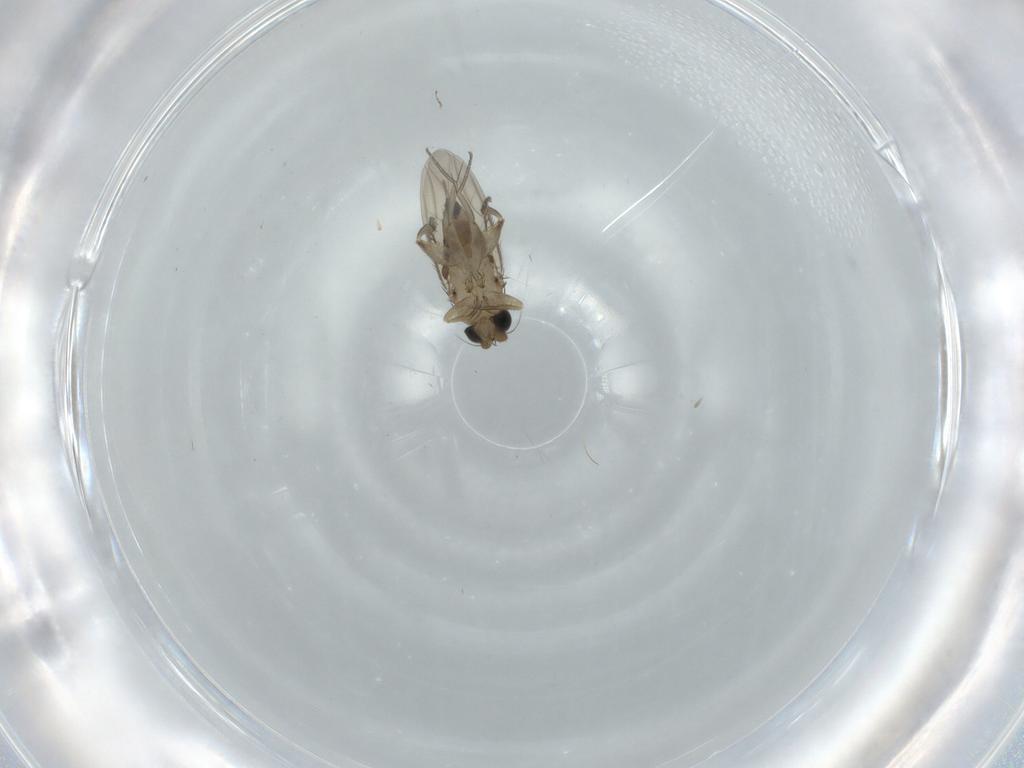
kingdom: Animalia
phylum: Arthropoda
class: Insecta
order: Diptera
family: Phoridae
